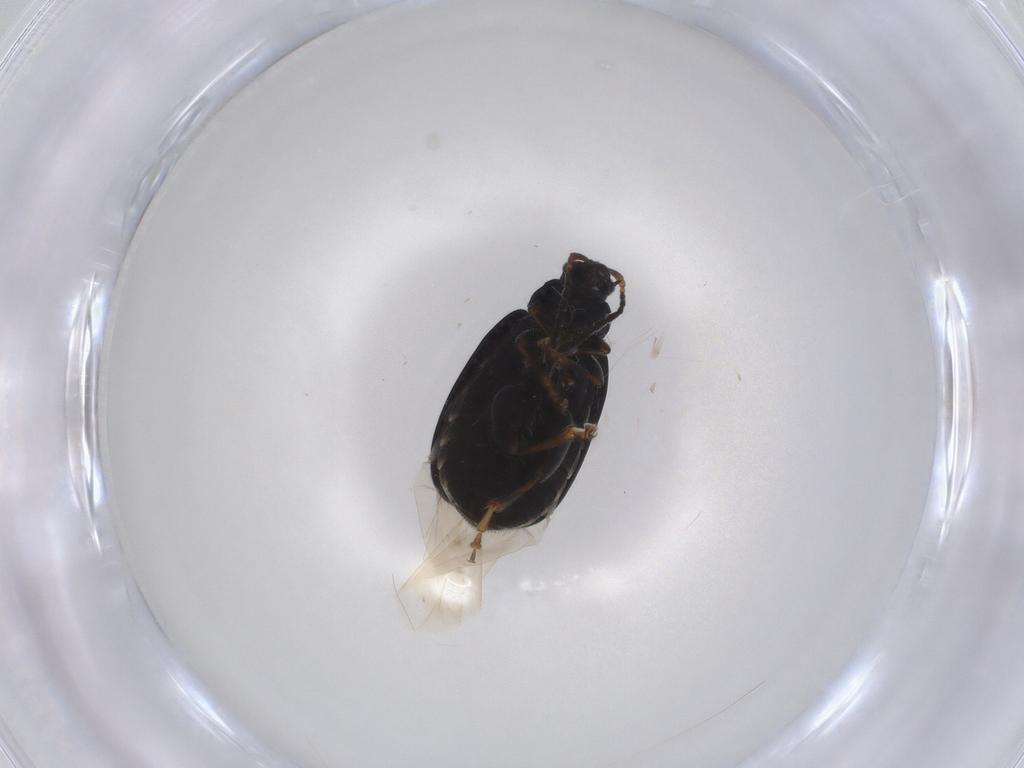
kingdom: Animalia
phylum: Arthropoda
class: Insecta
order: Coleoptera
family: Chrysomelidae
